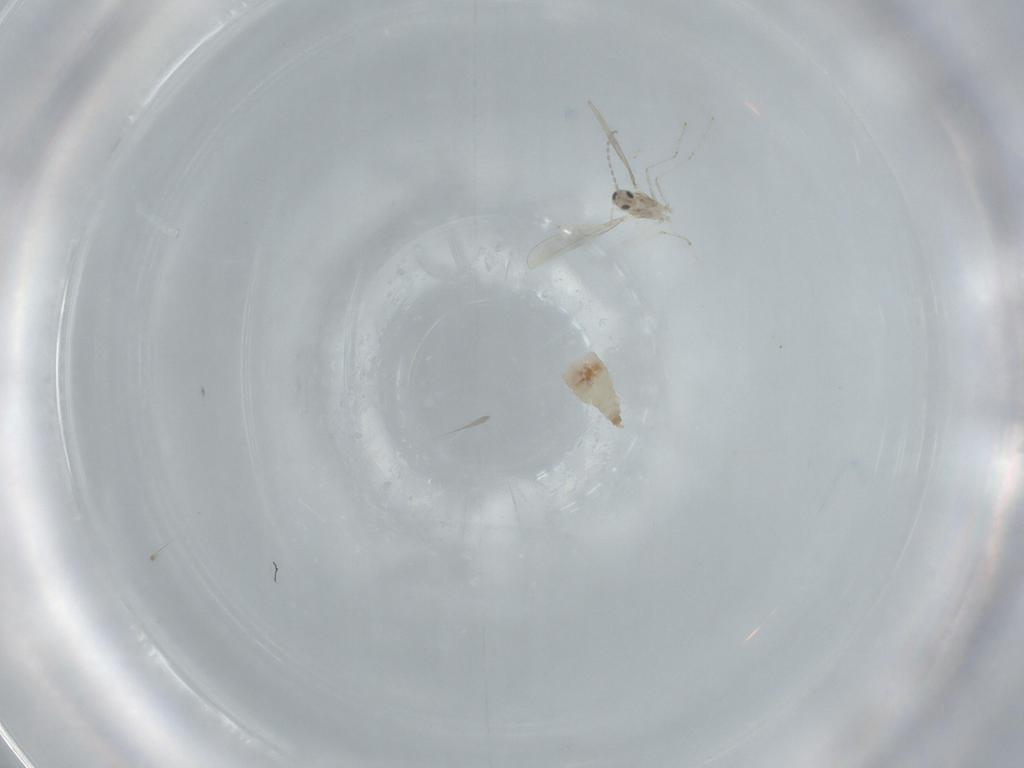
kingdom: Animalia
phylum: Arthropoda
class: Insecta
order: Diptera
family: Cecidomyiidae
